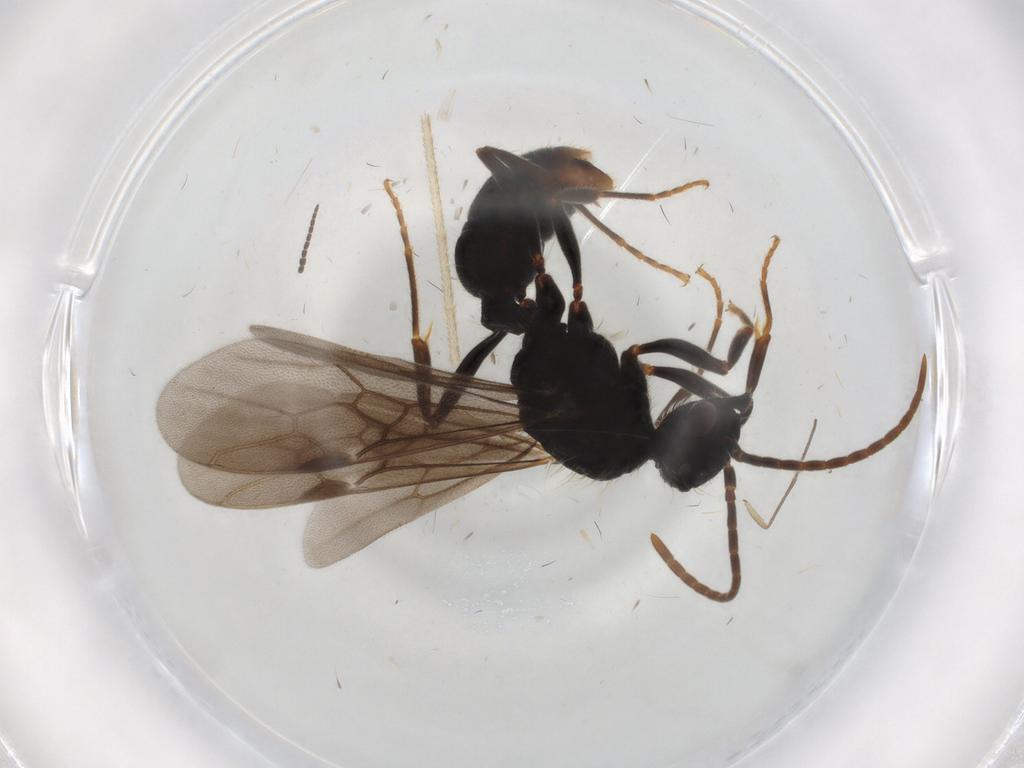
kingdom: Animalia
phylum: Arthropoda
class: Insecta
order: Hymenoptera
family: Formicidae
